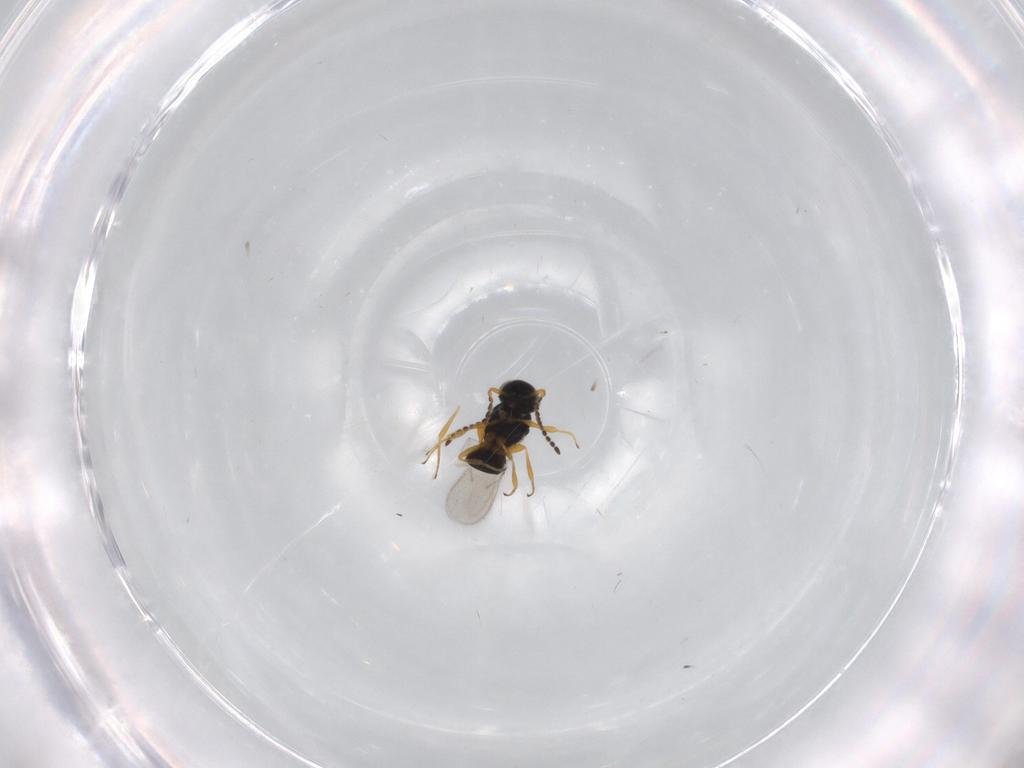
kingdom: Animalia
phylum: Arthropoda
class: Insecta
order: Hymenoptera
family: Scelionidae
